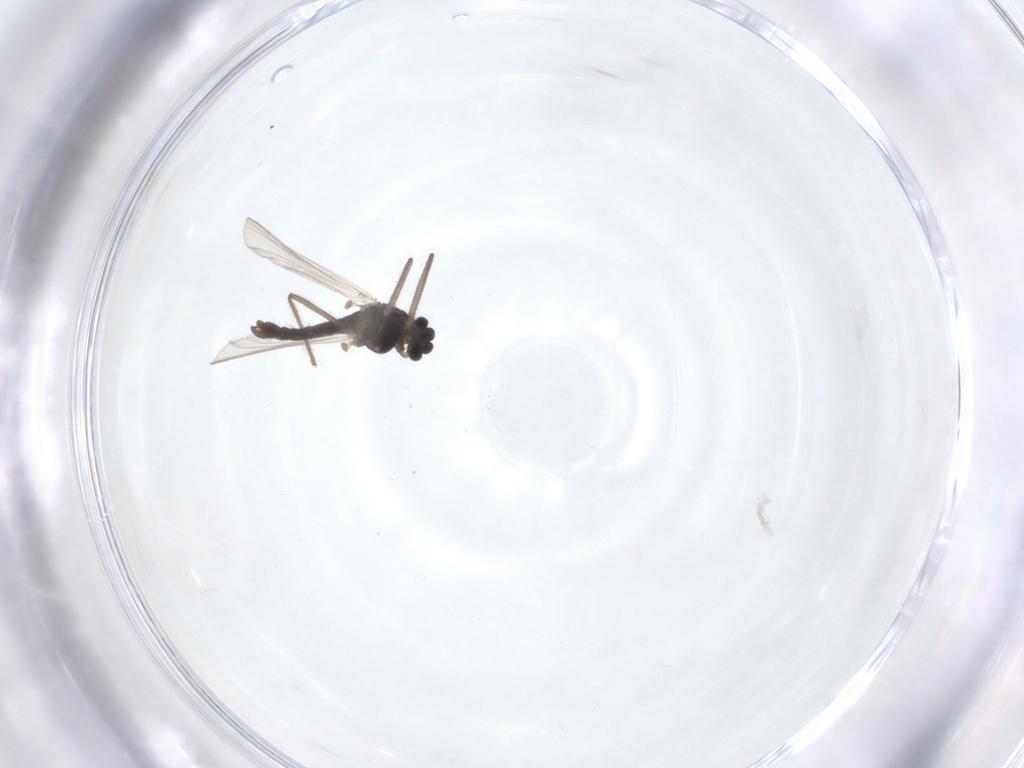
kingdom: Animalia
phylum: Arthropoda
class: Insecta
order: Diptera
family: Chironomidae
